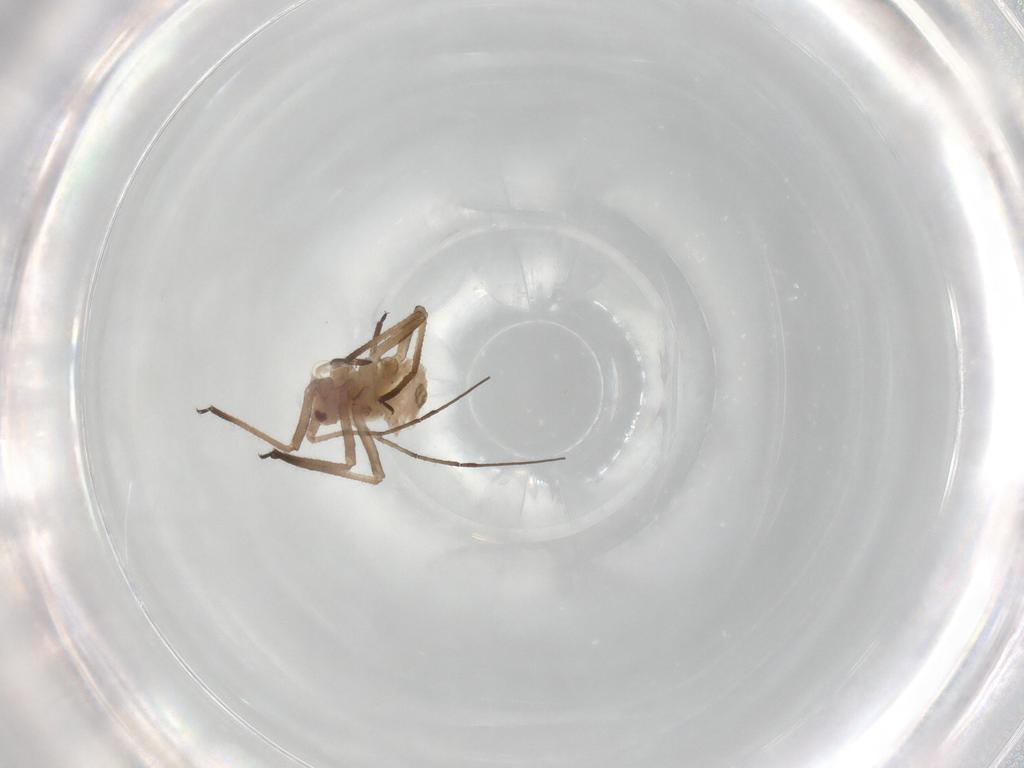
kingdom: Animalia
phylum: Arthropoda
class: Insecta
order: Hemiptera
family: Aphididae
